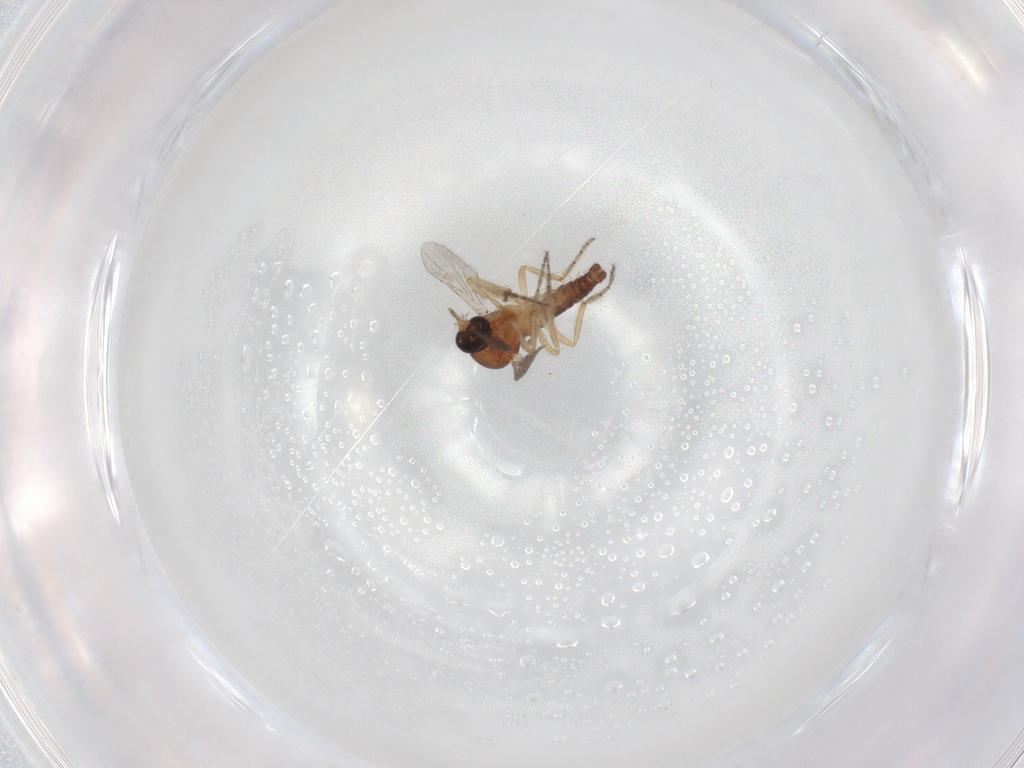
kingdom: Animalia
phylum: Arthropoda
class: Insecta
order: Diptera
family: Ceratopogonidae
